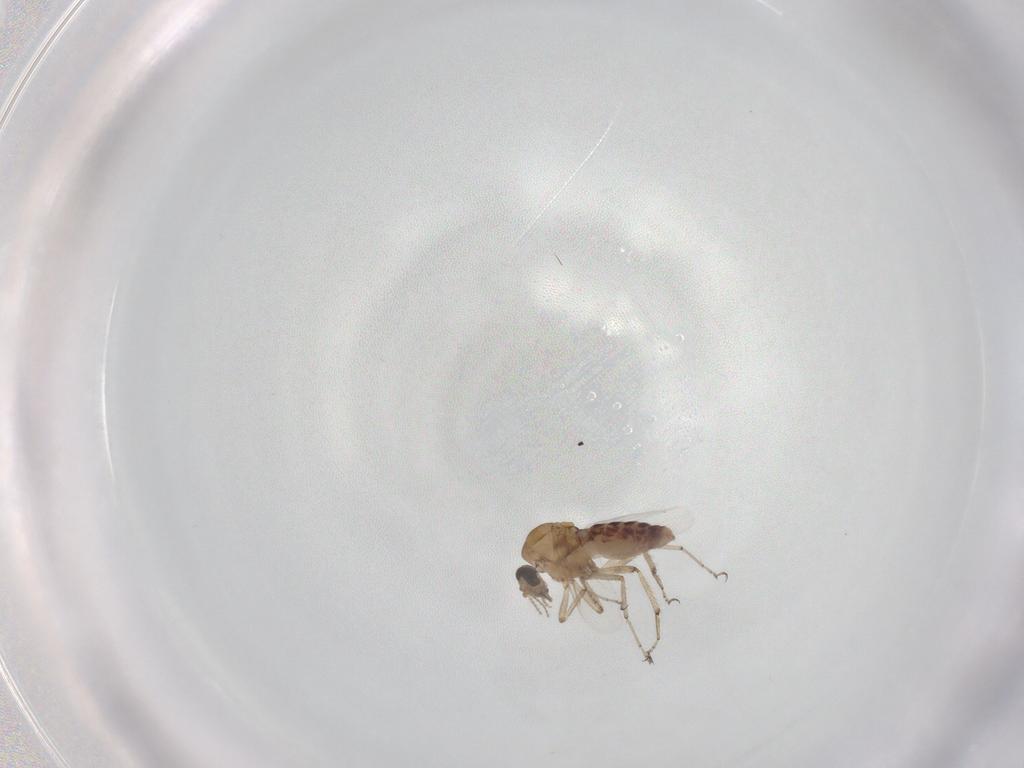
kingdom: Animalia
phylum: Arthropoda
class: Insecta
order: Diptera
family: Ceratopogonidae
